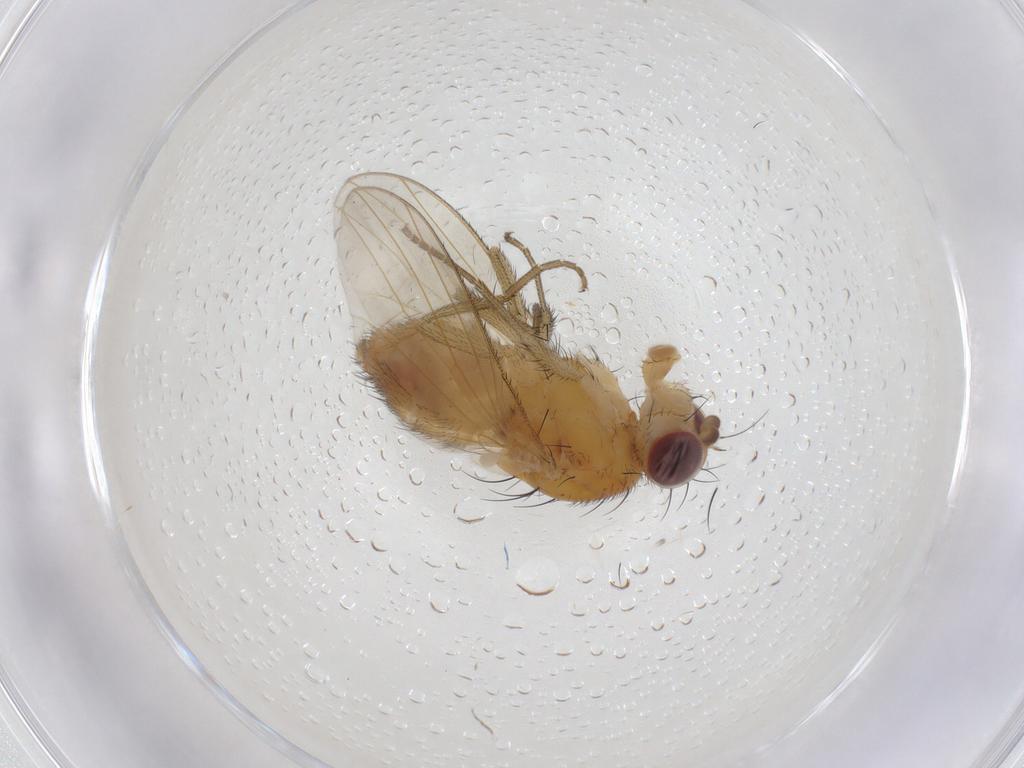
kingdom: Animalia
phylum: Arthropoda
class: Insecta
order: Diptera
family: Heleomyzidae
